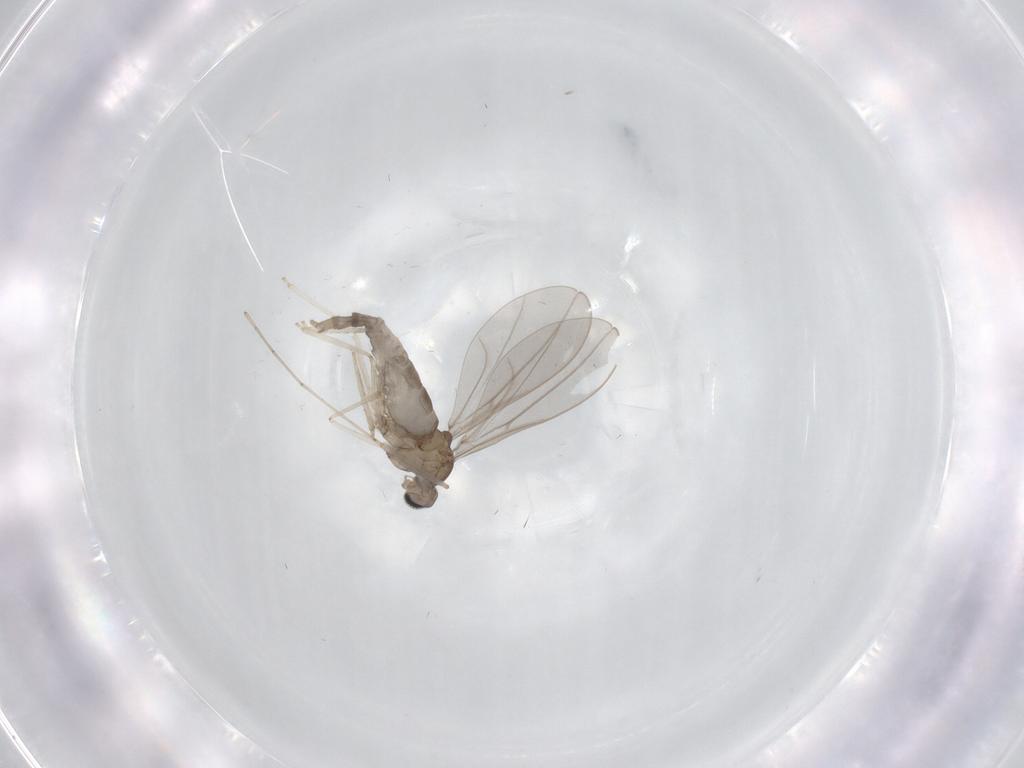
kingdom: Animalia
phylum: Arthropoda
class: Insecta
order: Diptera
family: Cecidomyiidae
